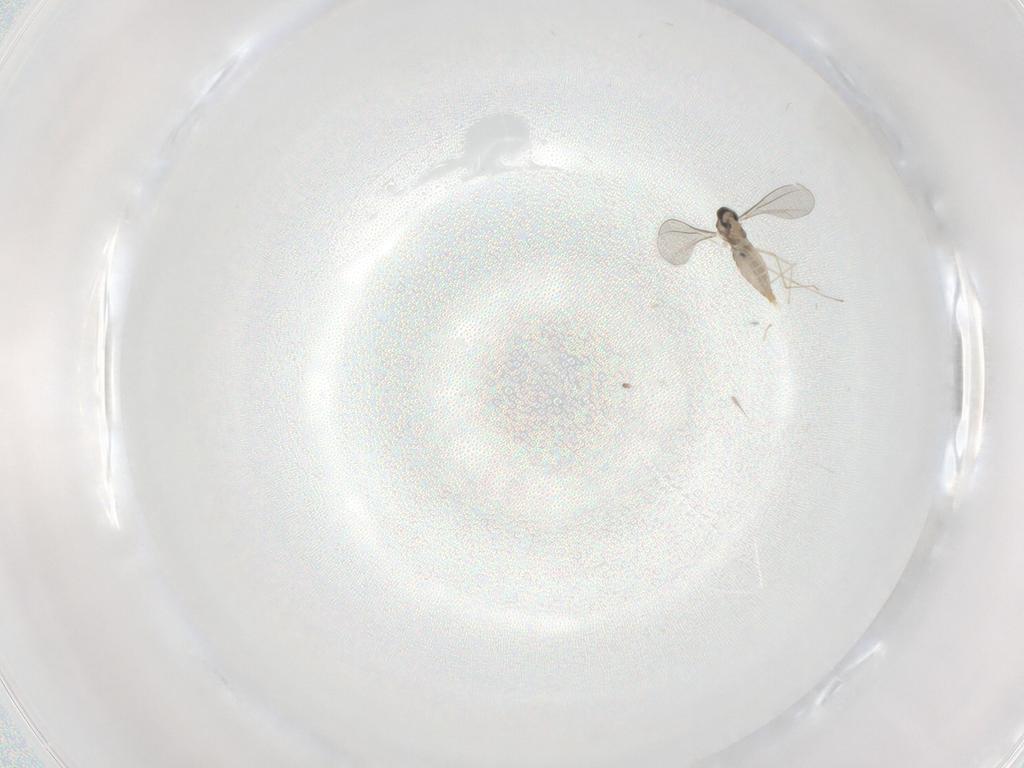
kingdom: Animalia
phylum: Arthropoda
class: Insecta
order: Diptera
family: Cecidomyiidae
